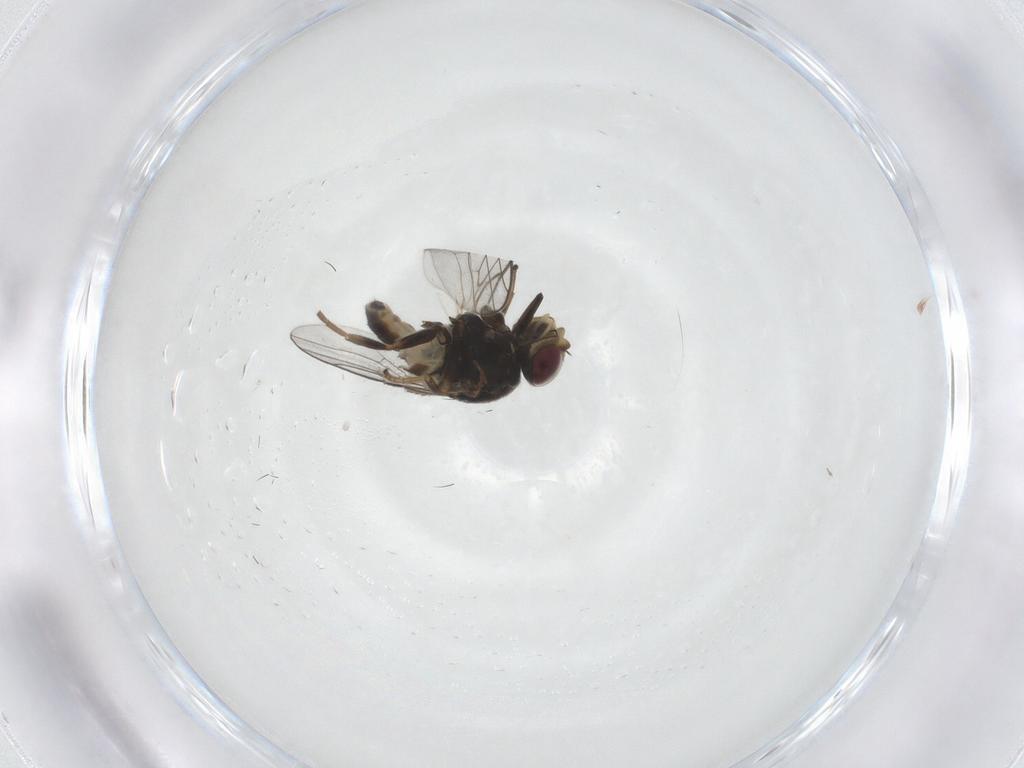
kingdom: Animalia
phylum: Arthropoda
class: Insecta
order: Diptera
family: Chloropidae
